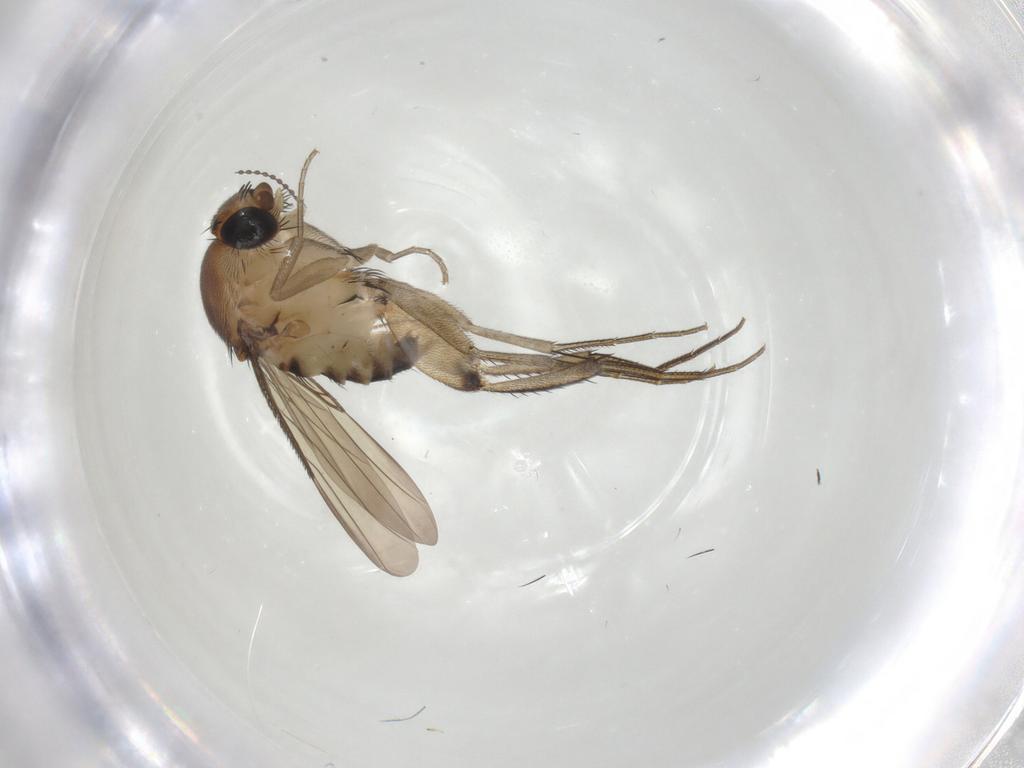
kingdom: Animalia
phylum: Arthropoda
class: Insecta
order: Diptera
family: Phoridae
